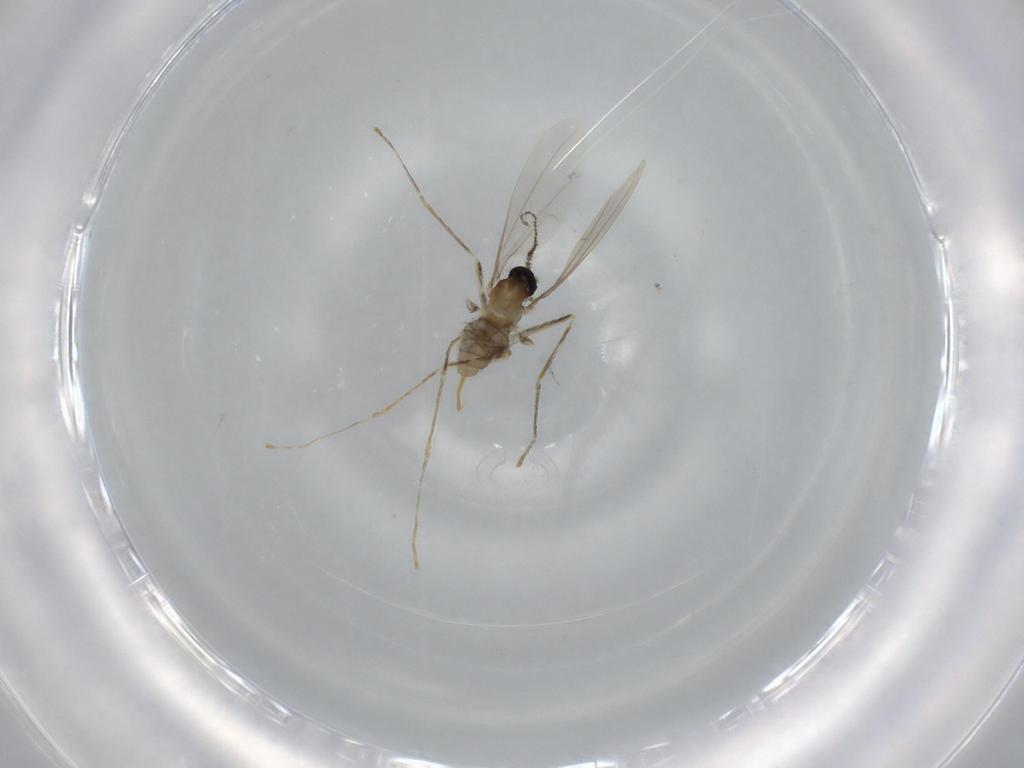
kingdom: Animalia
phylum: Arthropoda
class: Insecta
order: Diptera
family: Cecidomyiidae
